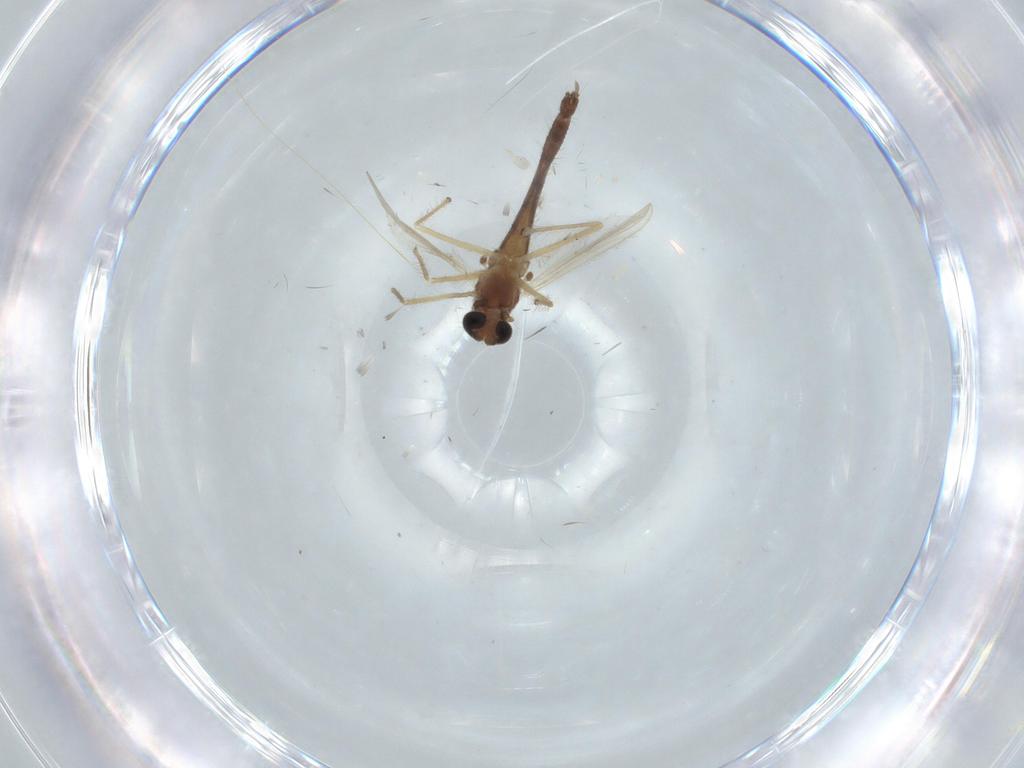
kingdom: Animalia
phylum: Arthropoda
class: Insecta
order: Diptera
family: Chironomidae
